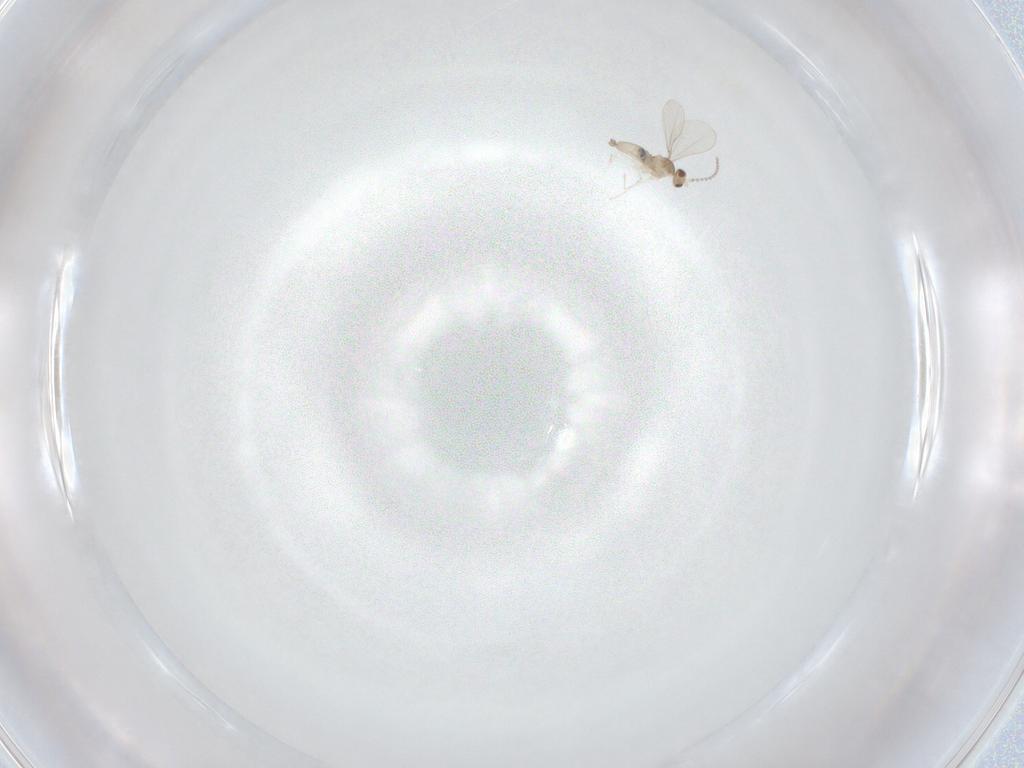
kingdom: Animalia
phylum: Arthropoda
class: Insecta
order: Diptera
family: Cecidomyiidae
